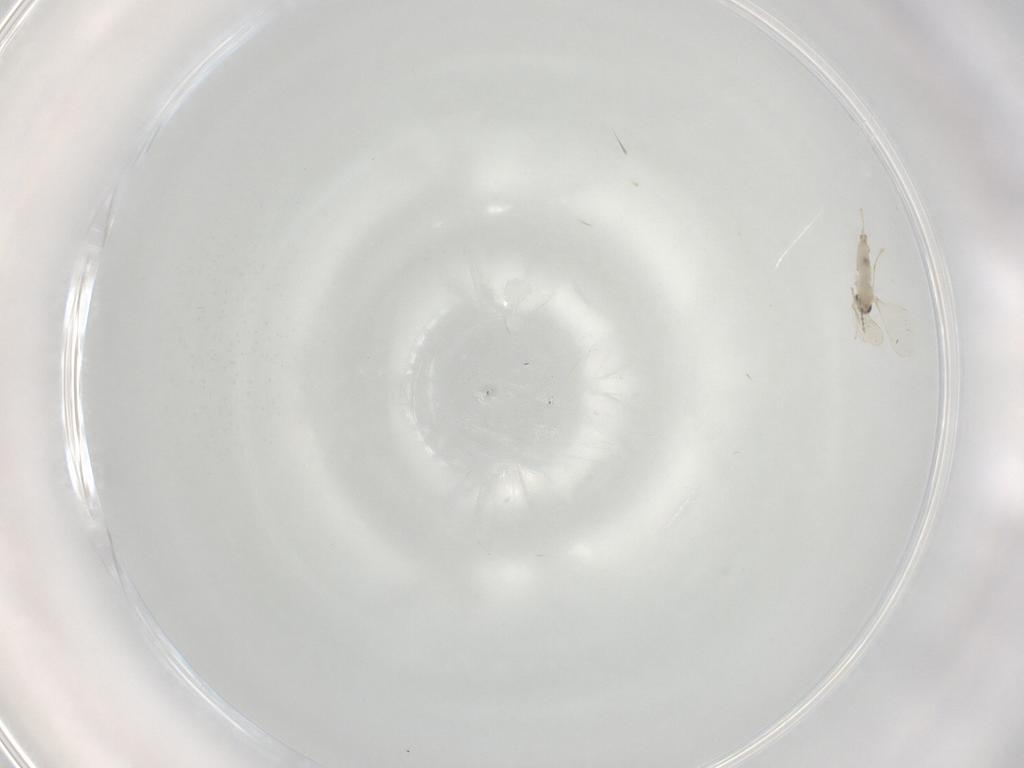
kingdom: Animalia
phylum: Arthropoda
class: Insecta
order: Diptera
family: Cecidomyiidae
